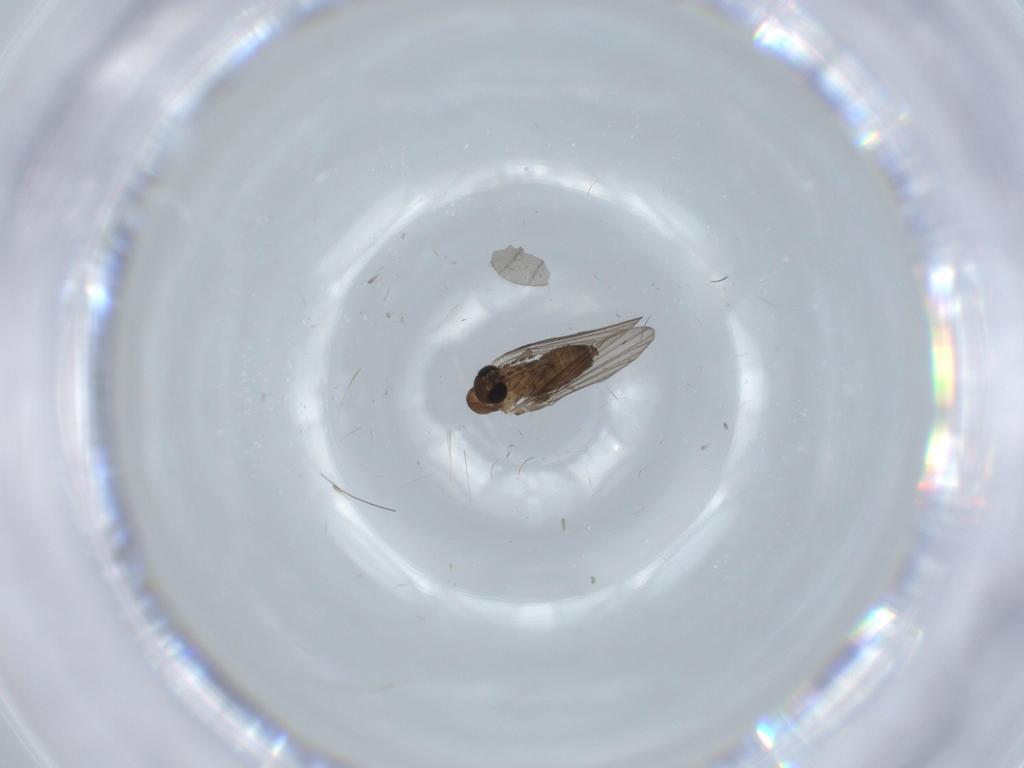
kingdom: Animalia
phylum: Arthropoda
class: Insecta
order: Diptera
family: Psychodidae
